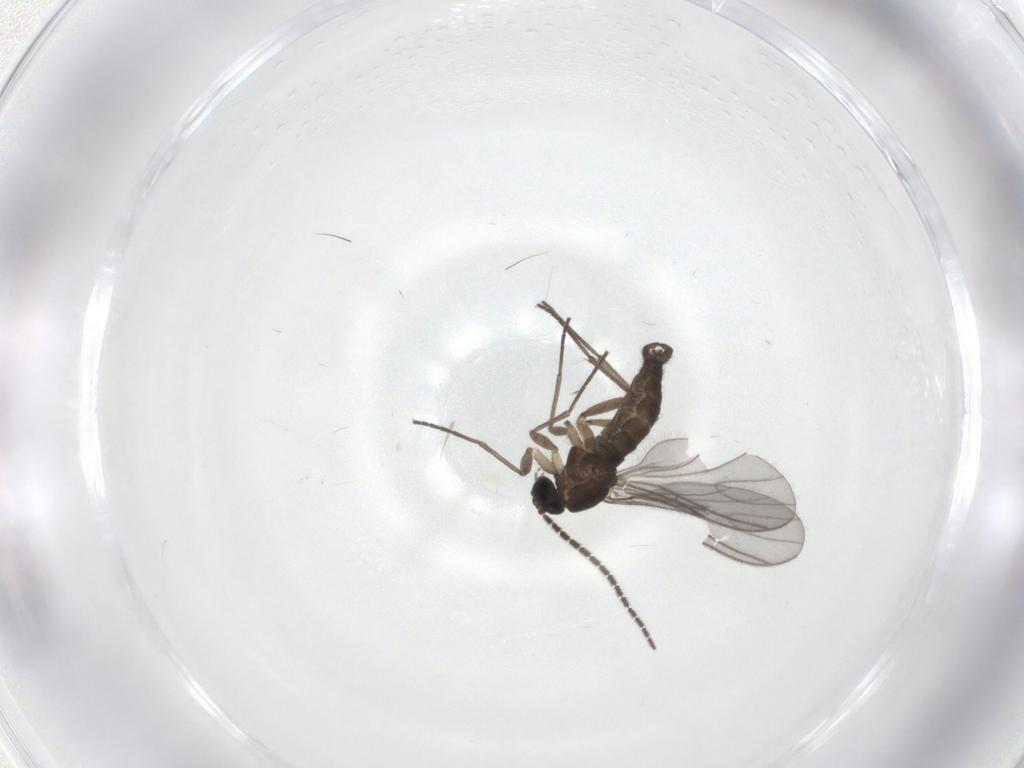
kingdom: Animalia
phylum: Arthropoda
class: Insecta
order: Diptera
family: Sciaridae
